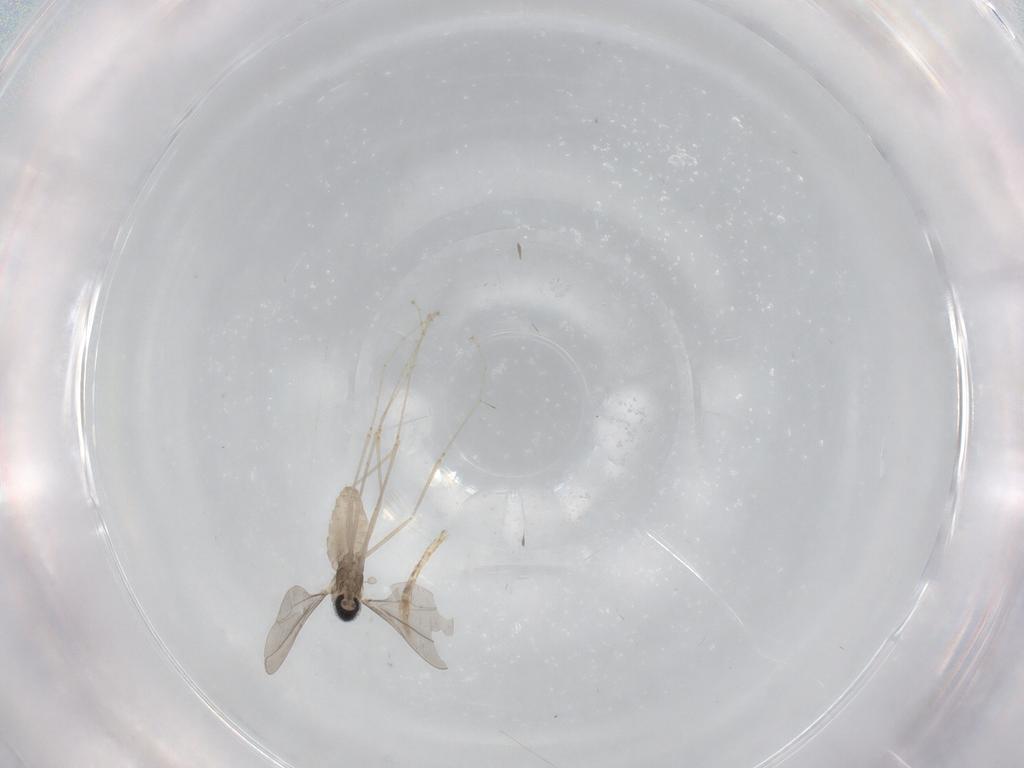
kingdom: Animalia
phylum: Arthropoda
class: Insecta
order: Diptera
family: Cecidomyiidae
